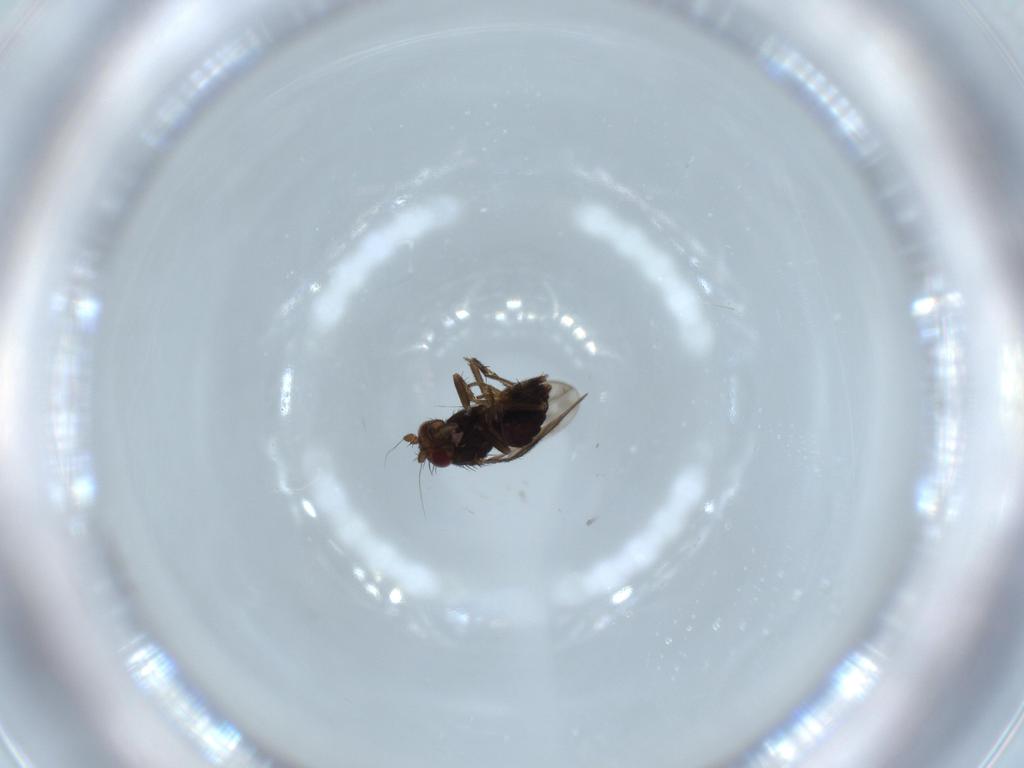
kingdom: Animalia
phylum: Arthropoda
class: Insecta
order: Diptera
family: Sphaeroceridae
